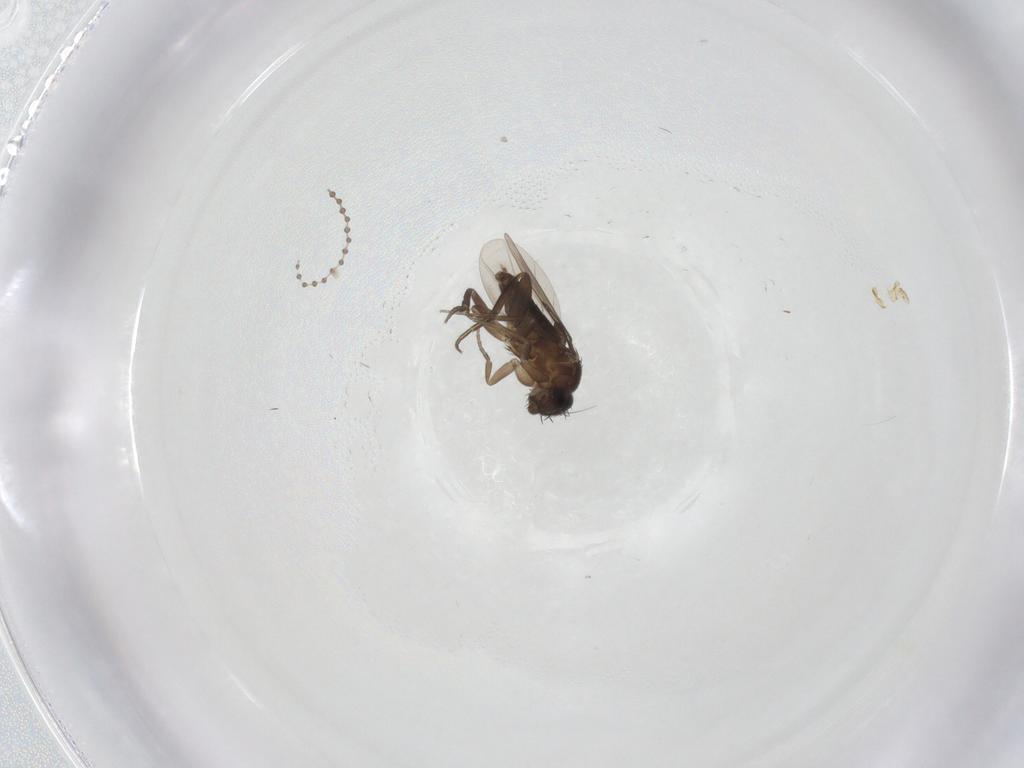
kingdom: Animalia
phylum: Arthropoda
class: Insecta
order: Diptera
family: Cecidomyiidae
